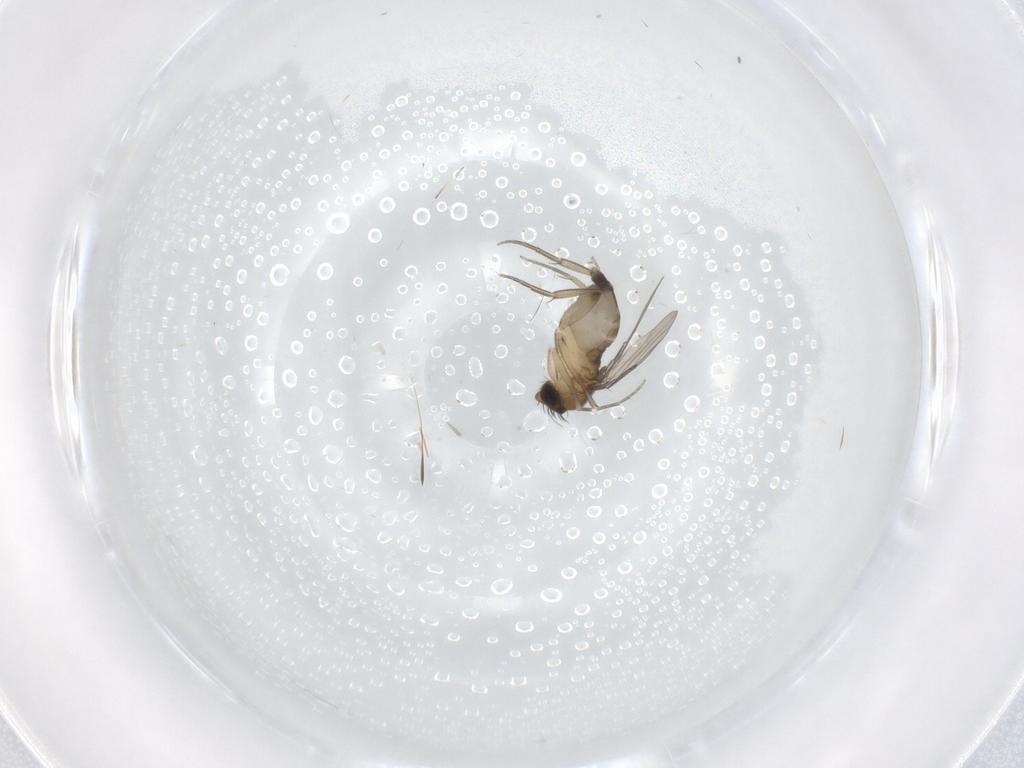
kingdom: Animalia
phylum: Arthropoda
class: Insecta
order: Diptera
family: Phoridae
